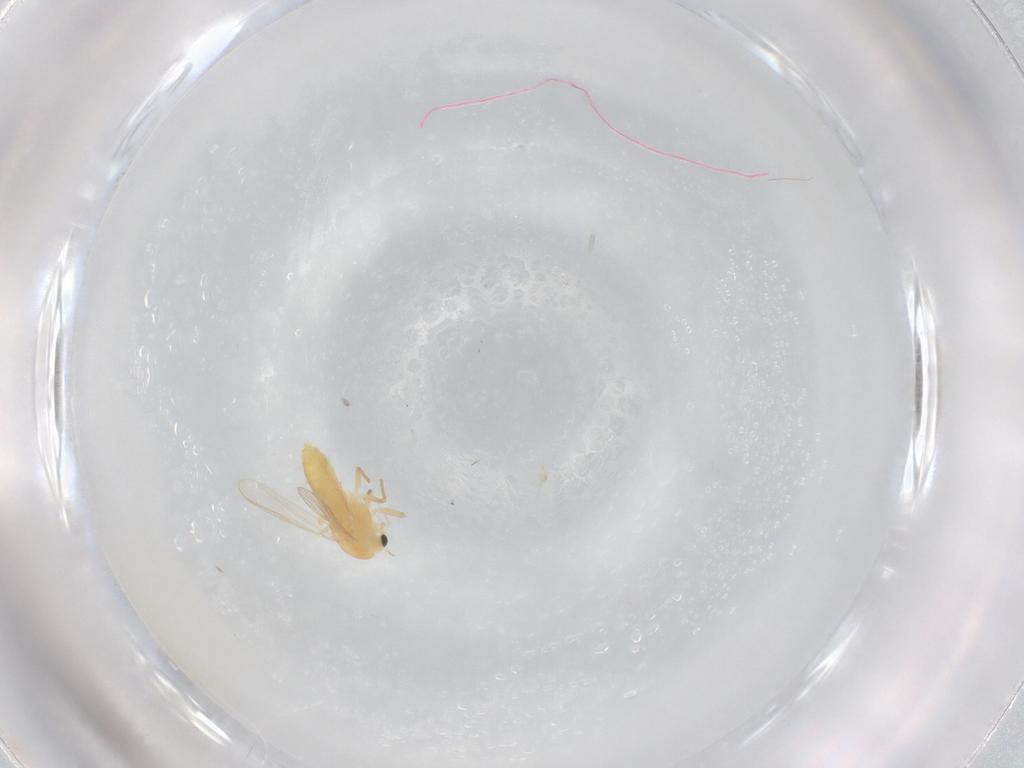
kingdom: Animalia
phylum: Arthropoda
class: Insecta
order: Diptera
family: Chironomidae
